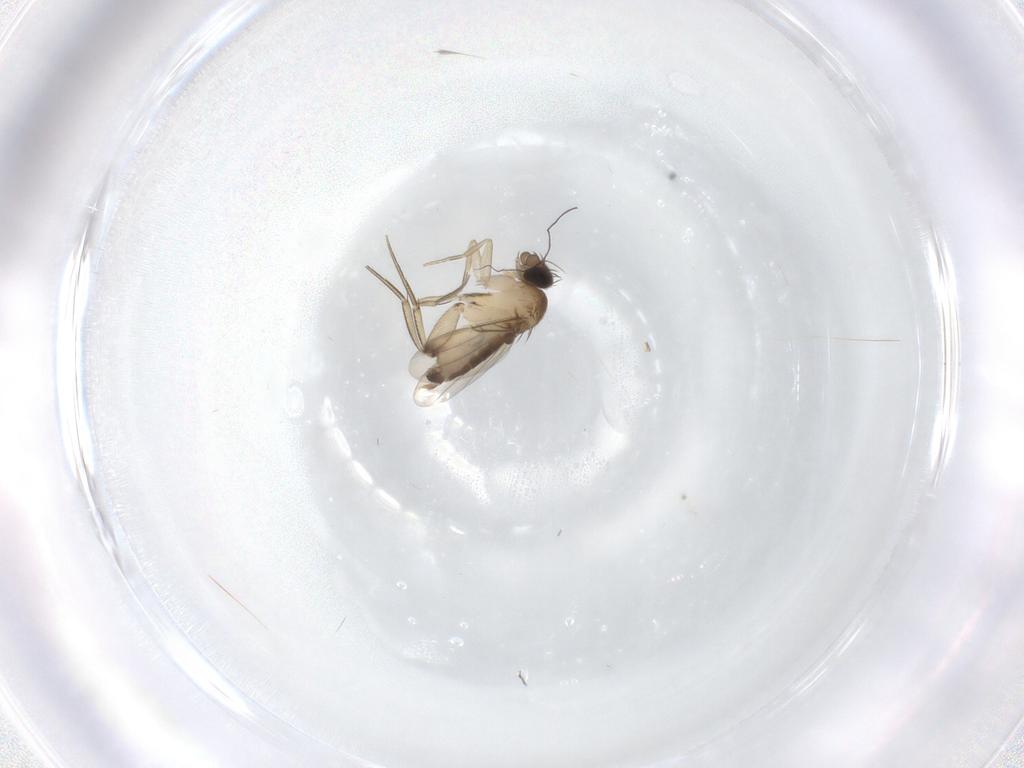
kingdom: Animalia
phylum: Arthropoda
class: Insecta
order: Diptera
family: Phoridae
